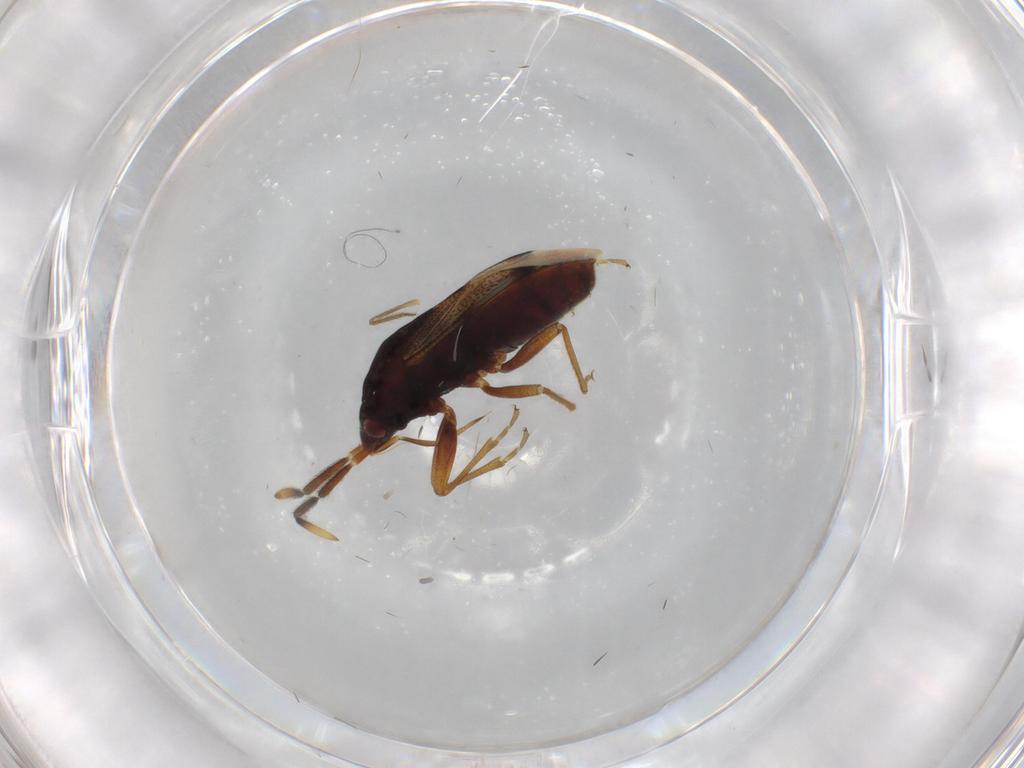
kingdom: Animalia
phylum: Arthropoda
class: Insecta
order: Hemiptera
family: Rhyparochromidae
